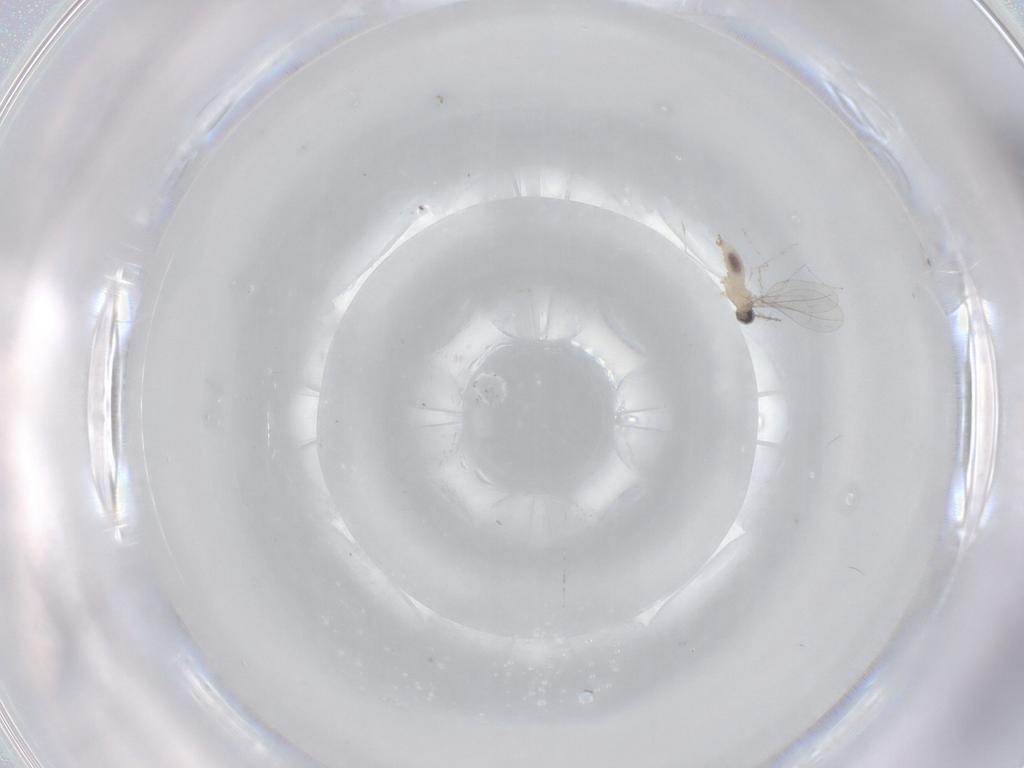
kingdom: Animalia
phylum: Arthropoda
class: Insecta
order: Diptera
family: Cecidomyiidae
